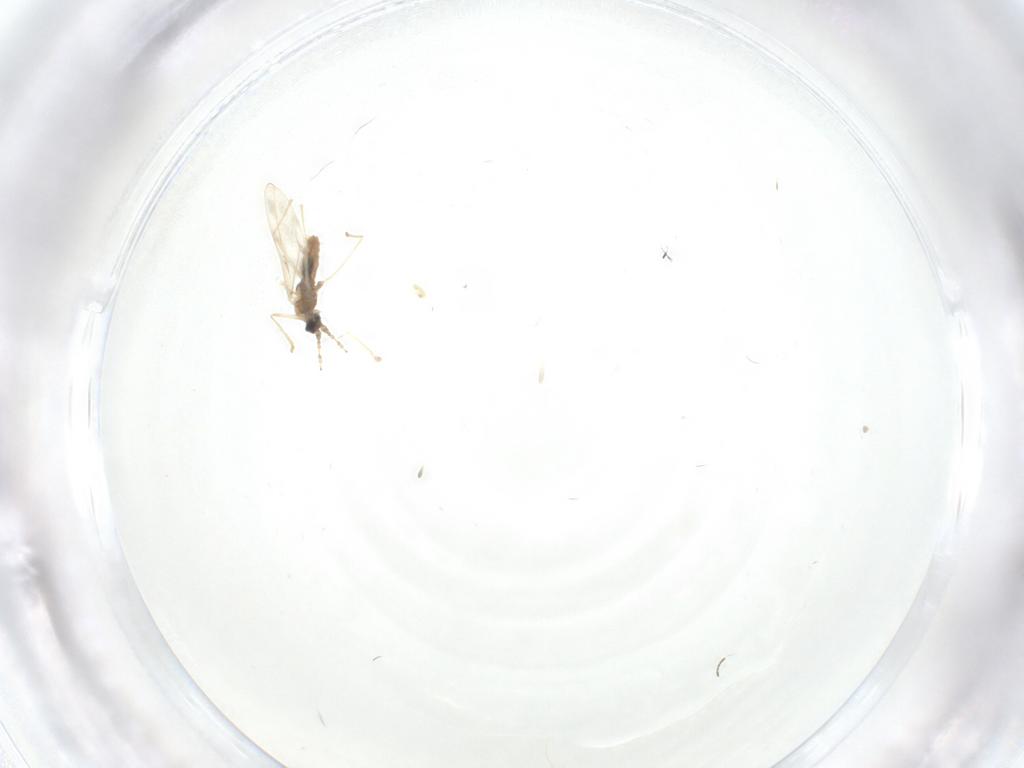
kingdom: Animalia
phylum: Arthropoda
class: Insecta
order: Diptera
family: Cecidomyiidae
